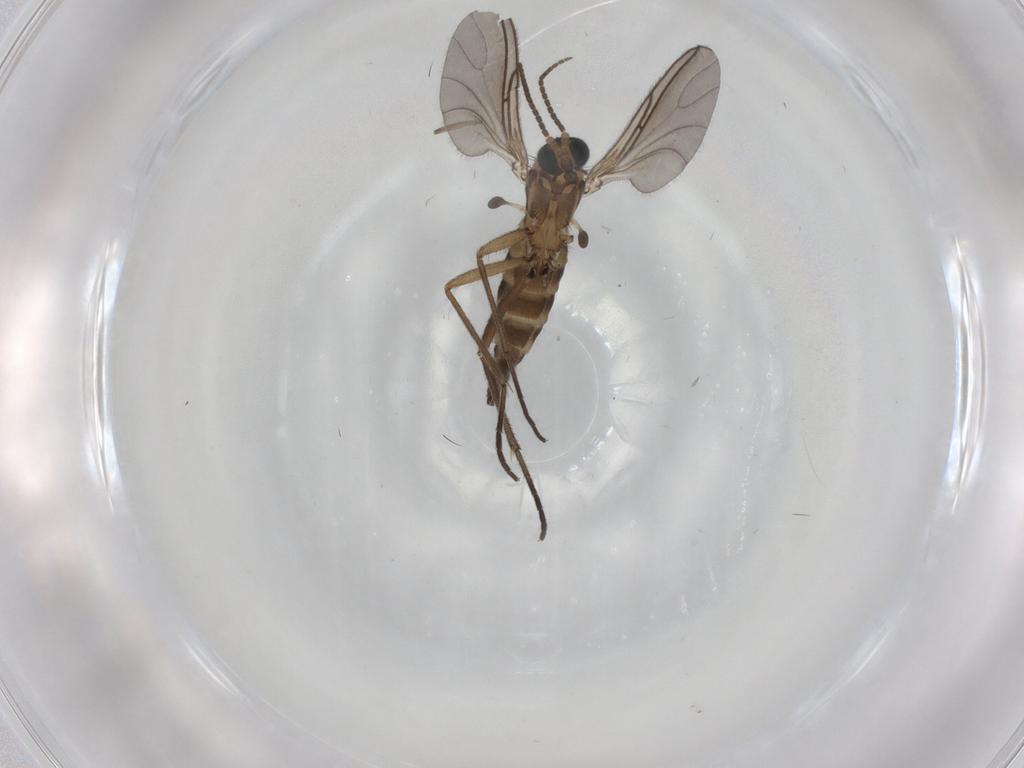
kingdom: Animalia
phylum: Arthropoda
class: Insecta
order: Diptera
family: Sciaridae
